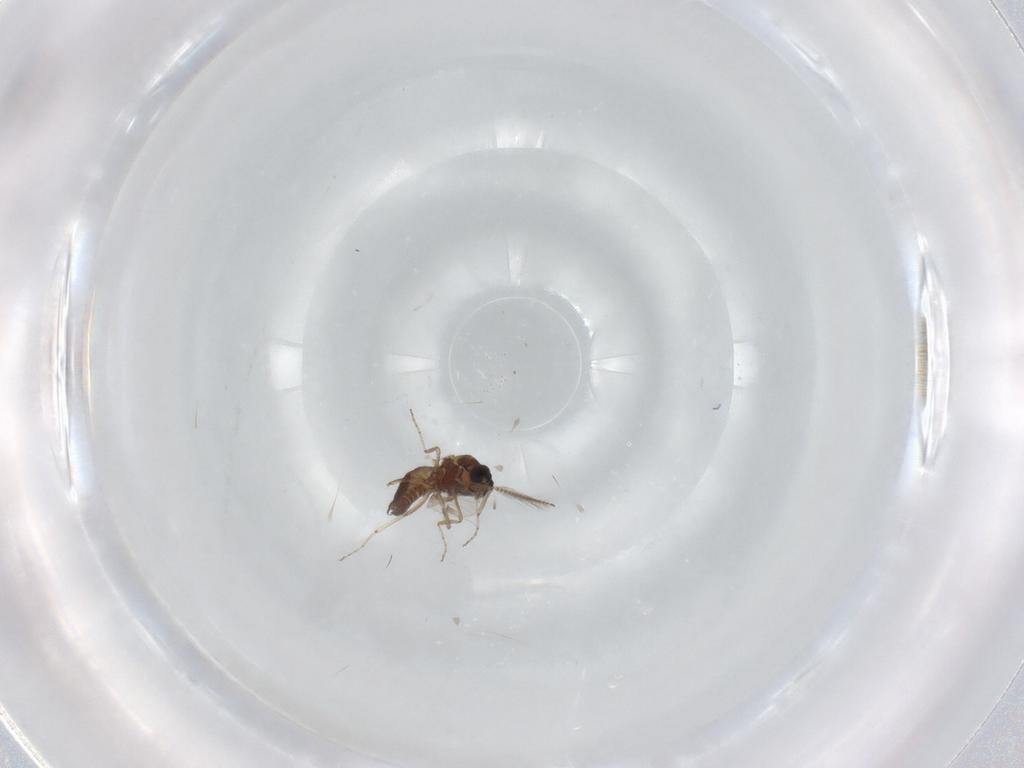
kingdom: Animalia
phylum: Arthropoda
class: Insecta
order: Diptera
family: Ceratopogonidae
